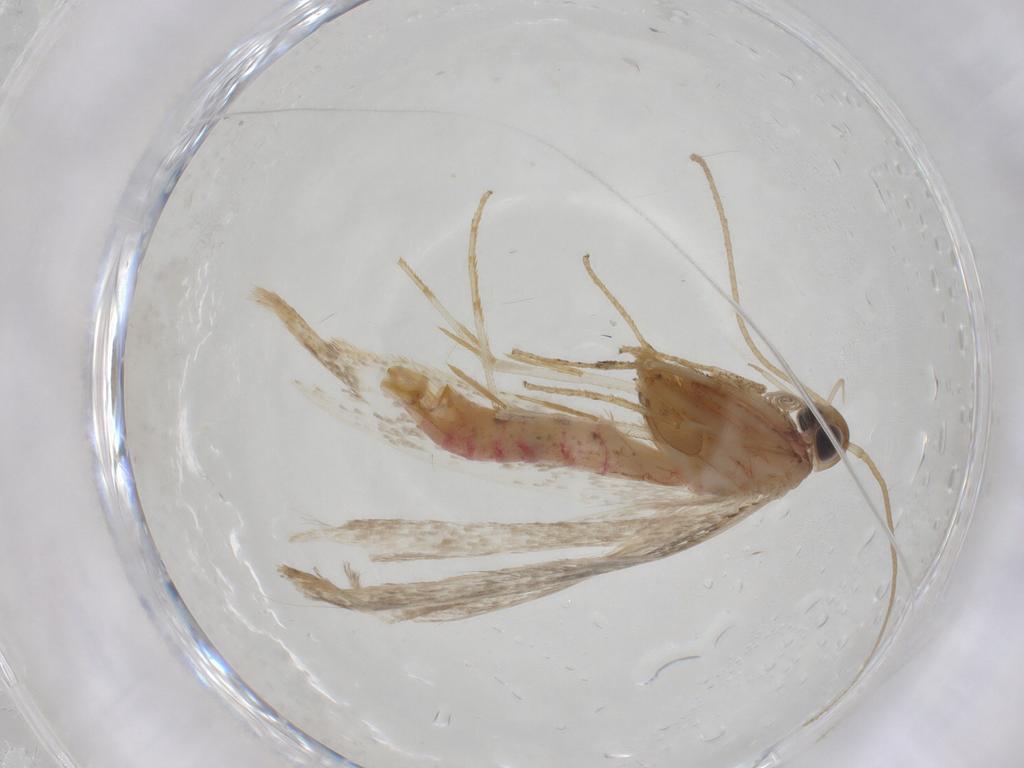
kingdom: Animalia
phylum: Arthropoda
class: Insecta
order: Lepidoptera
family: Crambidae
